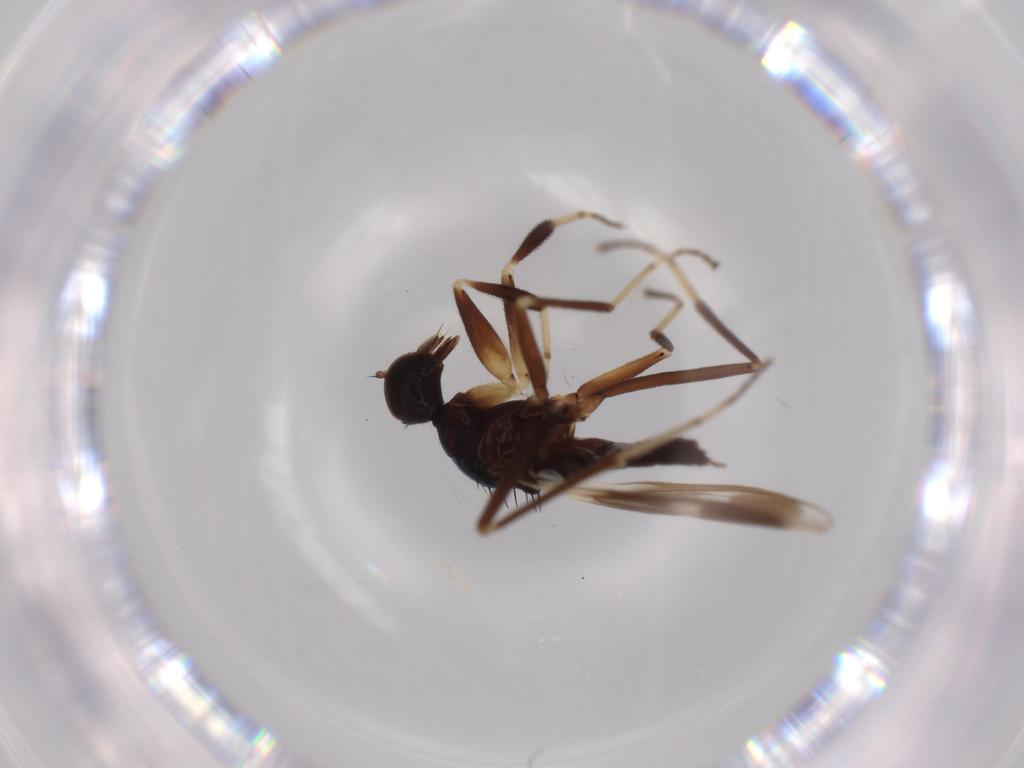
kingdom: Animalia
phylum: Arthropoda
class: Insecta
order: Diptera
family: Hybotidae
